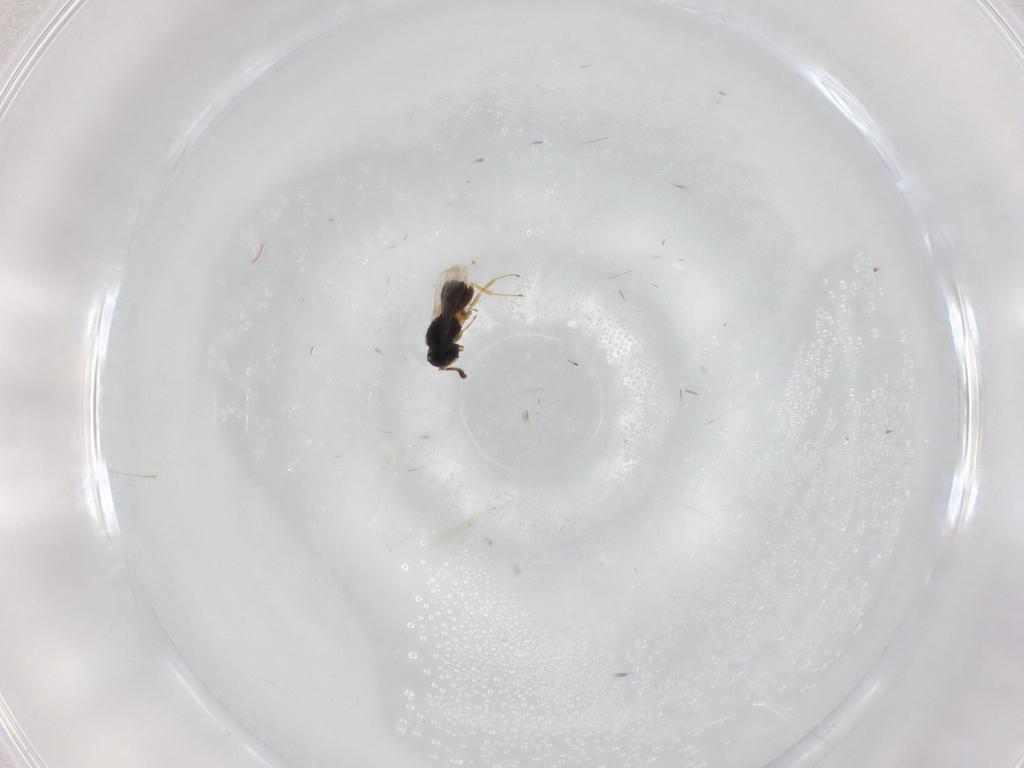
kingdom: Animalia
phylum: Arthropoda
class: Insecta
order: Hymenoptera
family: Scelionidae
